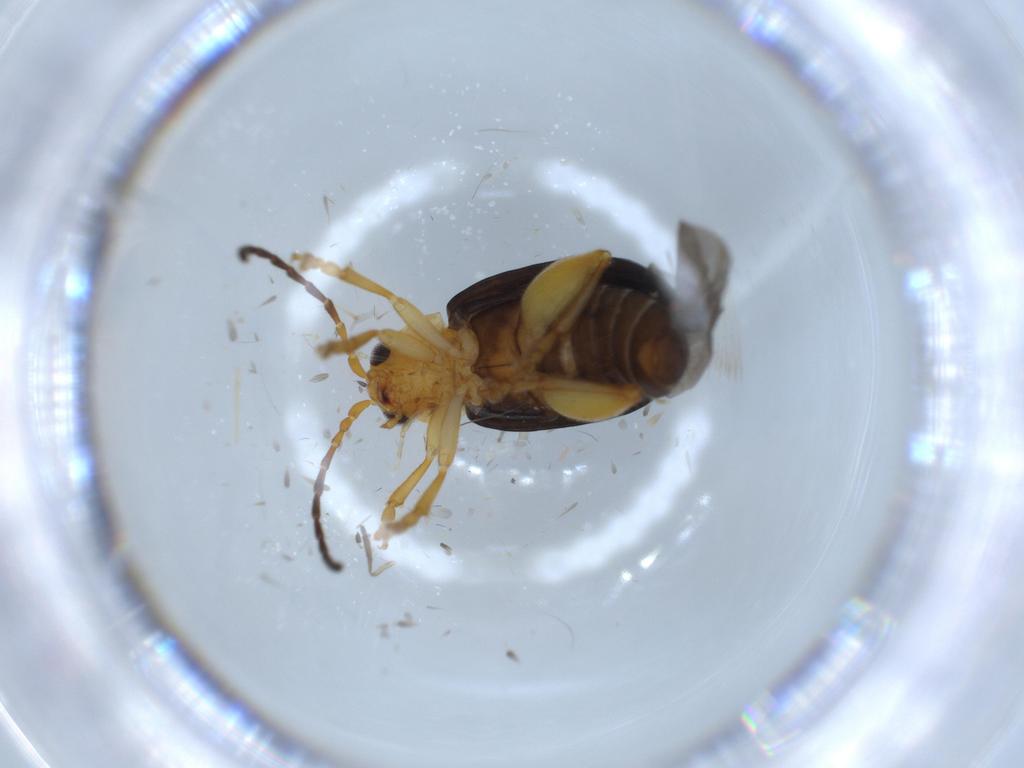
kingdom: Animalia
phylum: Arthropoda
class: Insecta
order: Coleoptera
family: Chrysomelidae
